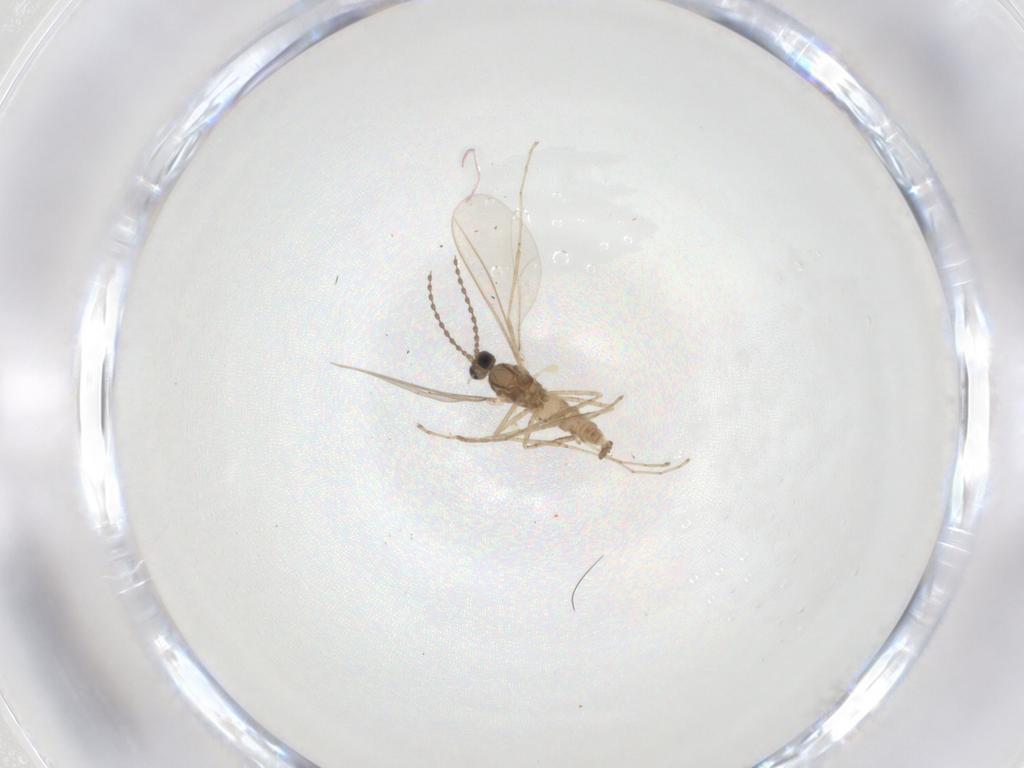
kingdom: Animalia
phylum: Arthropoda
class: Insecta
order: Diptera
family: Cecidomyiidae
